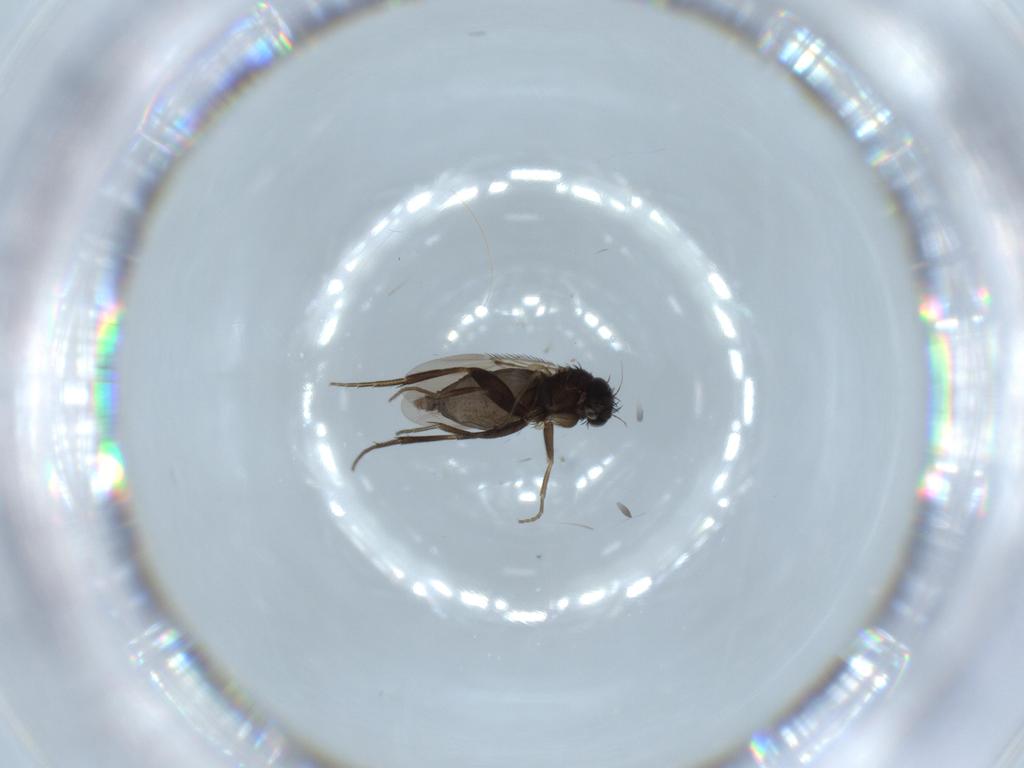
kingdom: Animalia
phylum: Arthropoda
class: Insecta
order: Diptera
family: Phoridae
